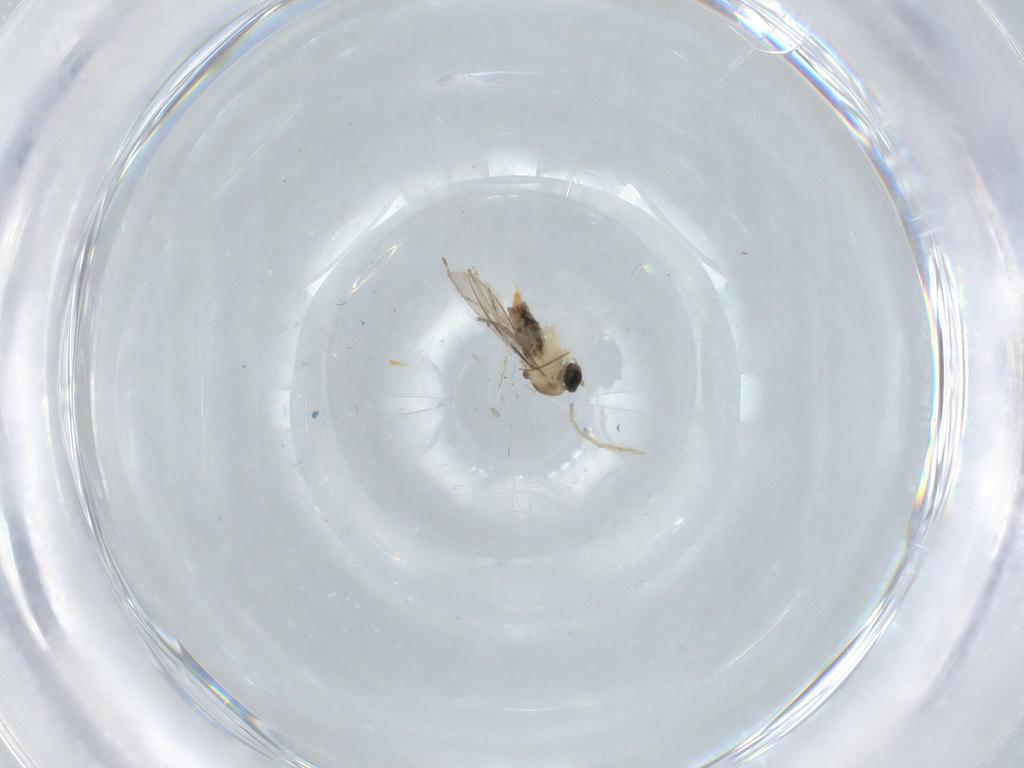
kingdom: Animalia
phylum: Arthropoda
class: Insecta
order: Diptera
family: Cecidomyiidae
